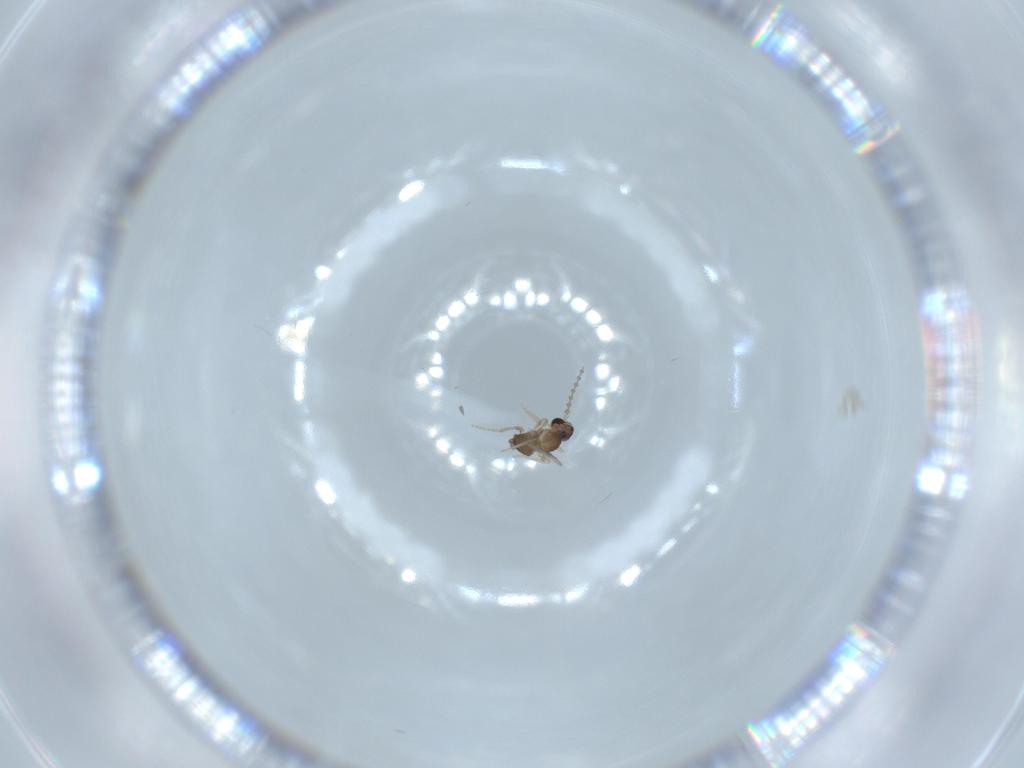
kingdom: Animalia
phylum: Arthropoda
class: Insecta
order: Diptera
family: Cecidomyiidae
